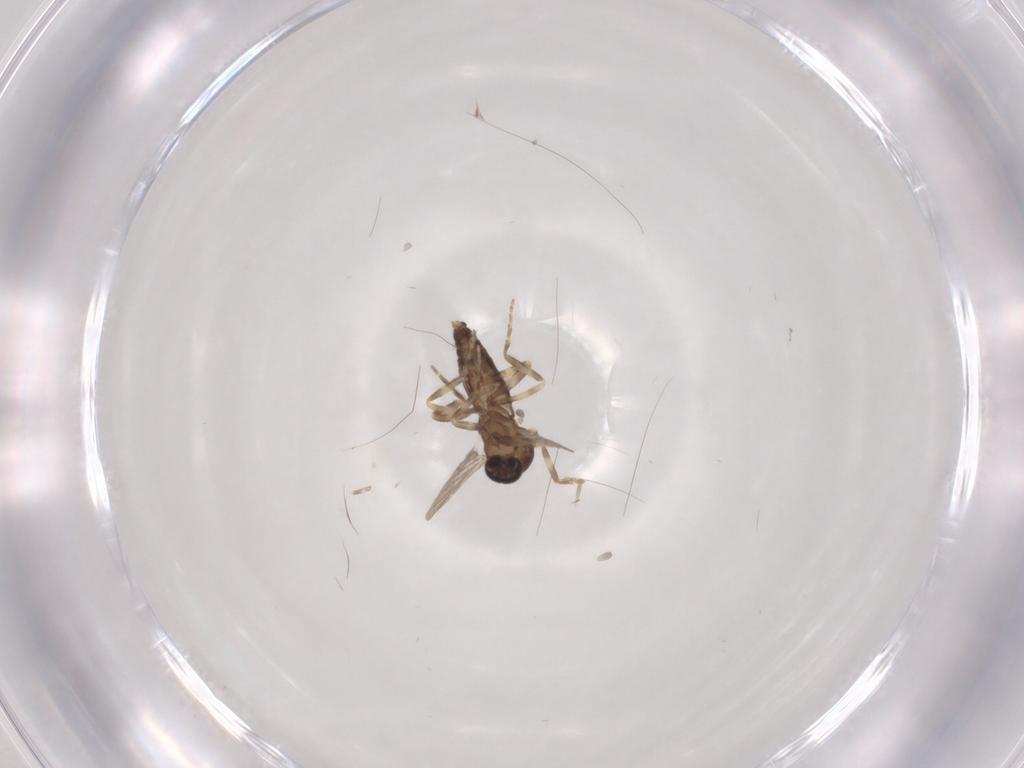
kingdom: Animalia
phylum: Arthropoda
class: Insecta
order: Diptera
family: Ceratopogonidae
